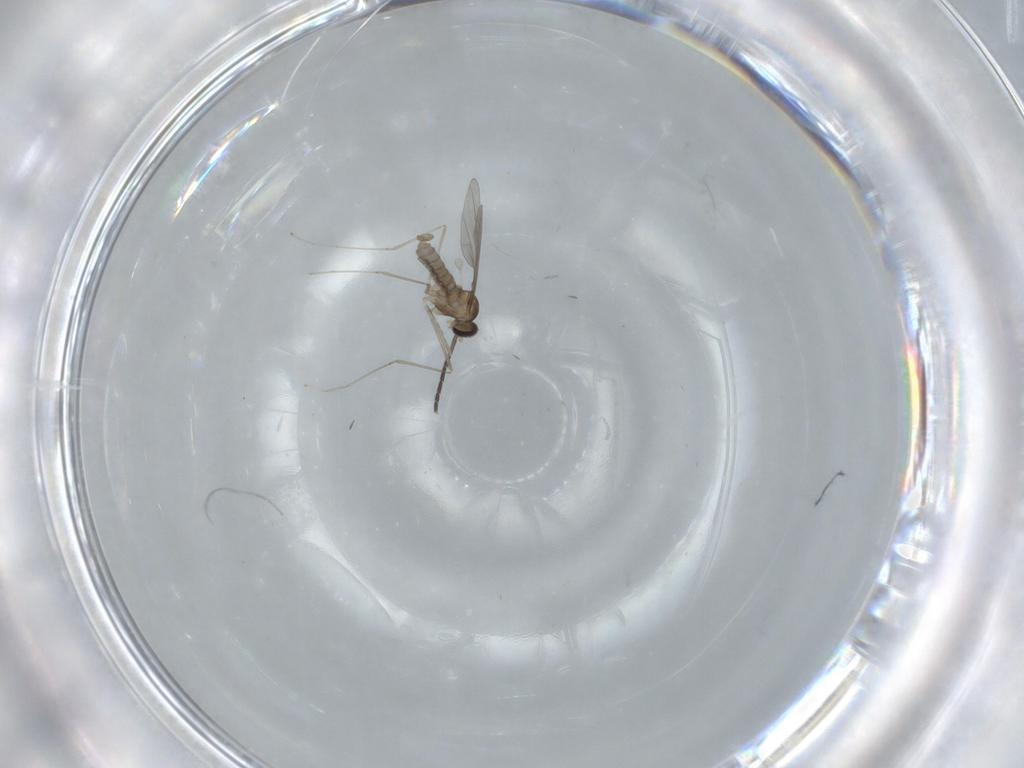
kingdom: Animalia
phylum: Arthropoda
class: Insecta
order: Diptera
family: Cecidomyiidae
